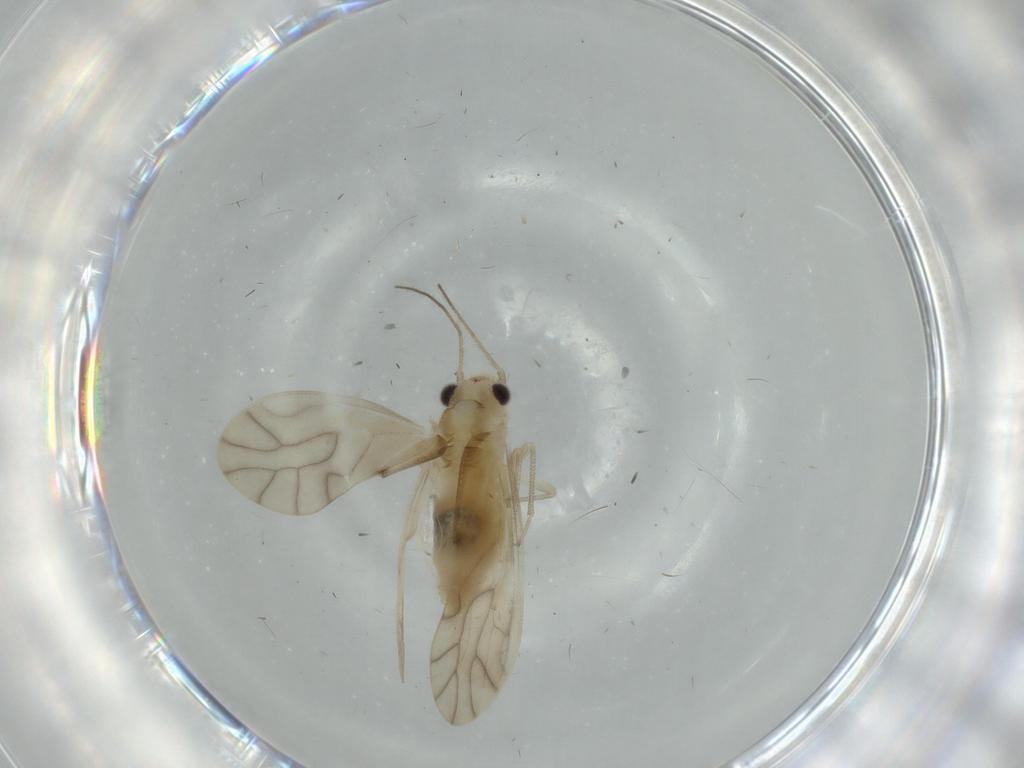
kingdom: Animalia
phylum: Arthropoda
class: Insecta
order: Psocodea
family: Caeciliusidae
